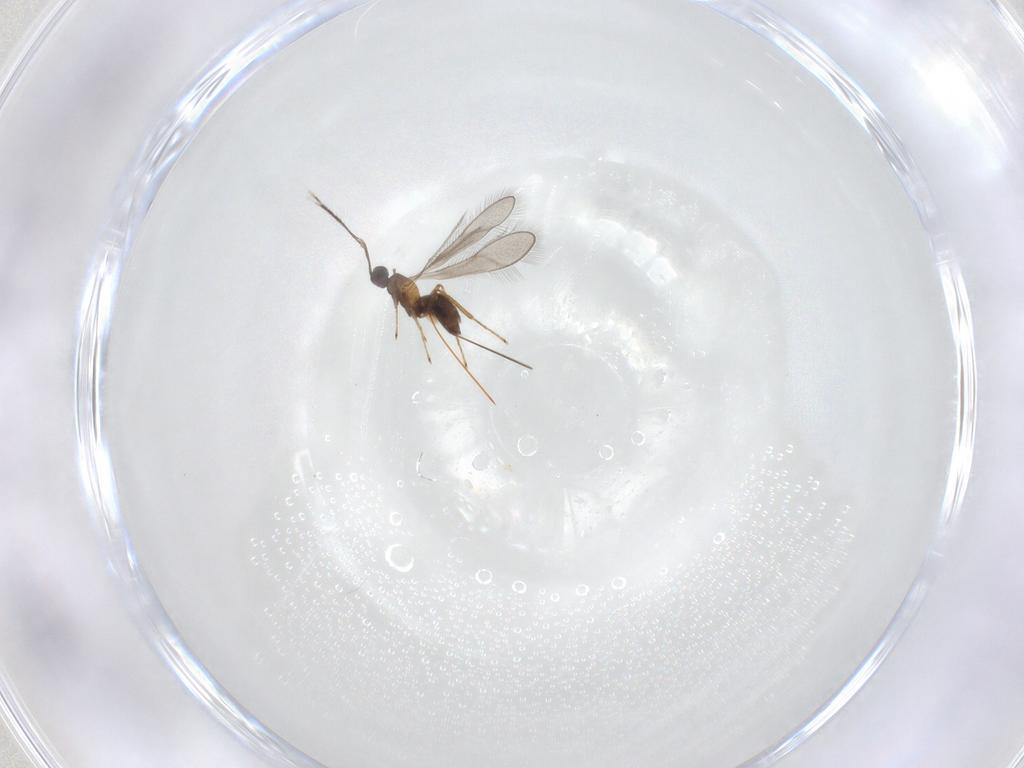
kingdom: Animalia
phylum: Arthropoda
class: Insecta
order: Hymenoptera
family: Mymaridae
